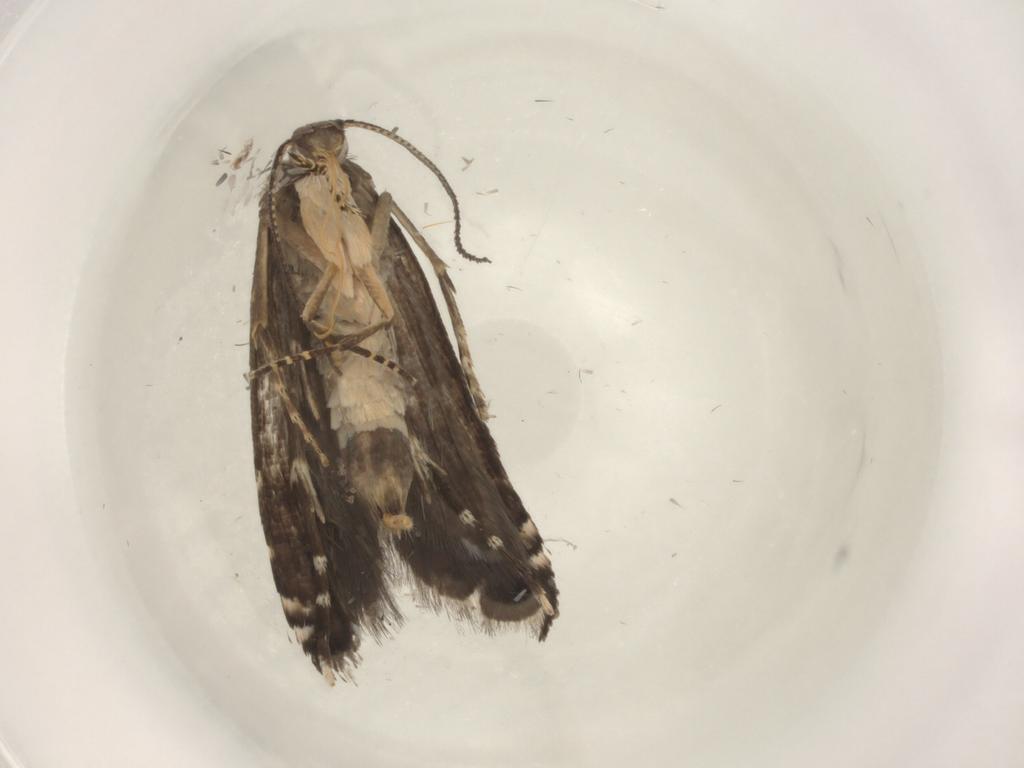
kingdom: Animalia
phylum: Arthropoda
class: Insecta
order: Lepidoptera
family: Glyphipterigidae
